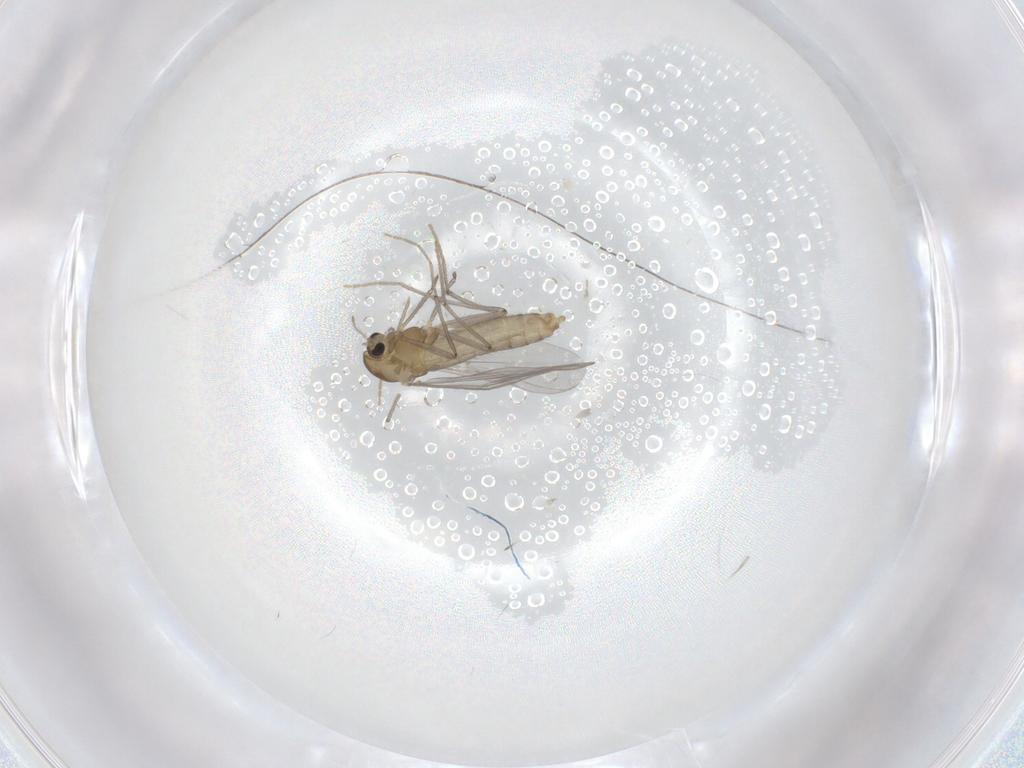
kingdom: Animalia
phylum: Arthropoda
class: Insecta
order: Diptera
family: Chironomidae
